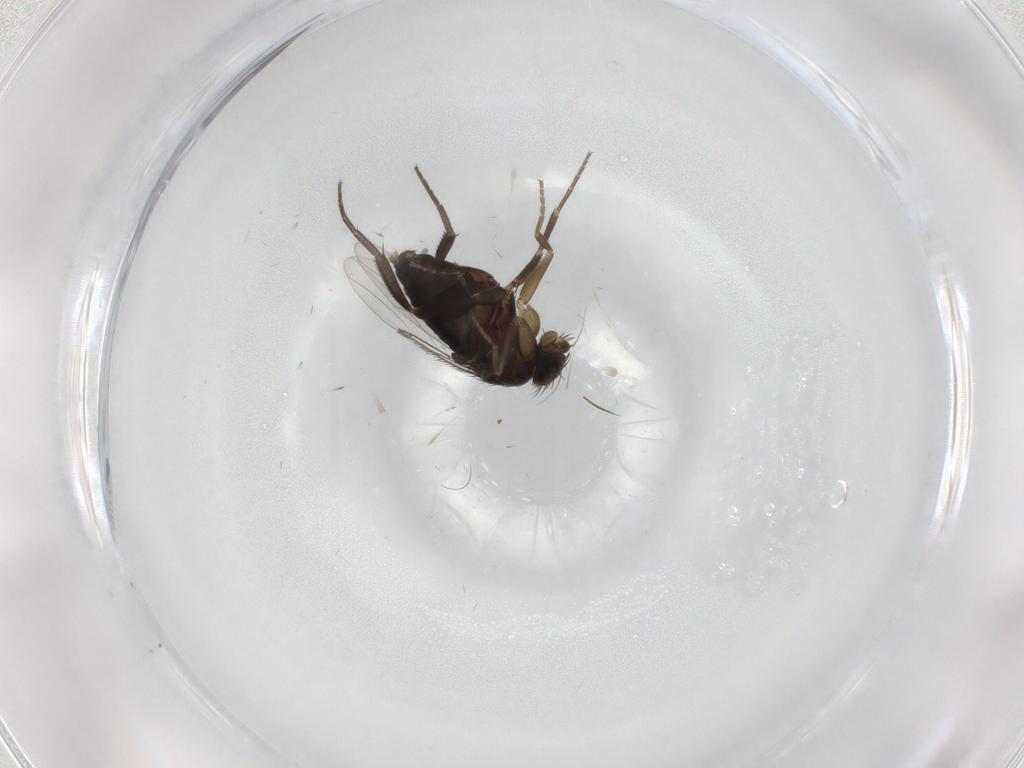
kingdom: Animalia
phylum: Arthropoda
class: Insecta
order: Diptera
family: Phoridae
